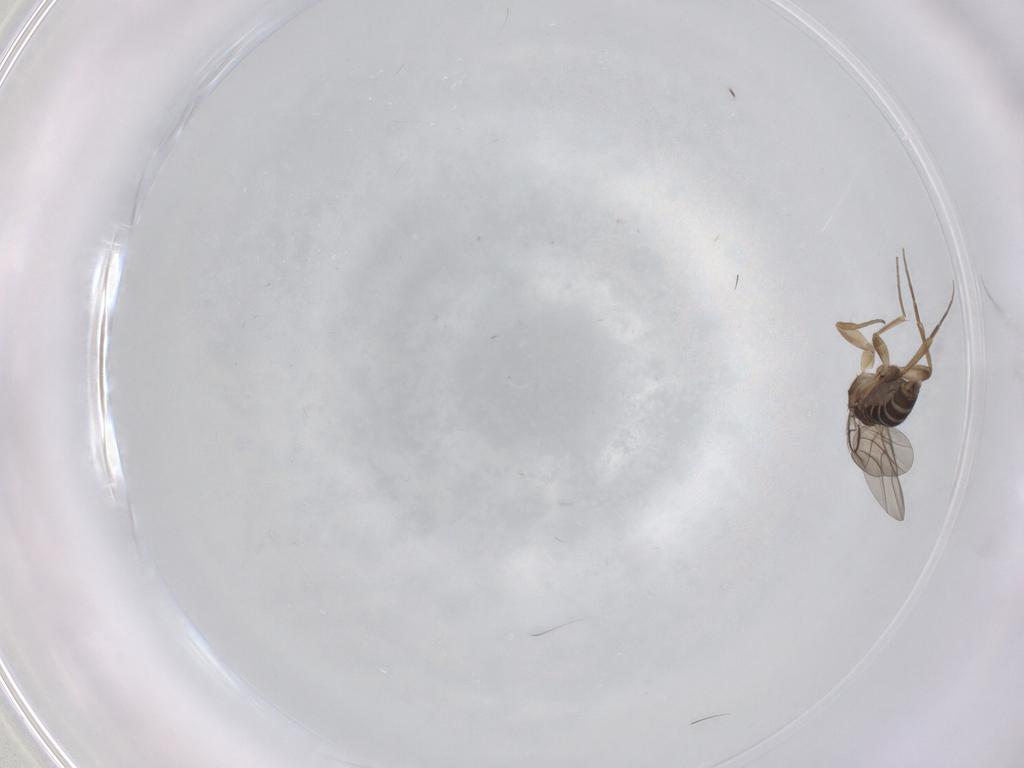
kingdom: Animalia
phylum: Arthropoda
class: Insecta
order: Diptera
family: Phoridae
